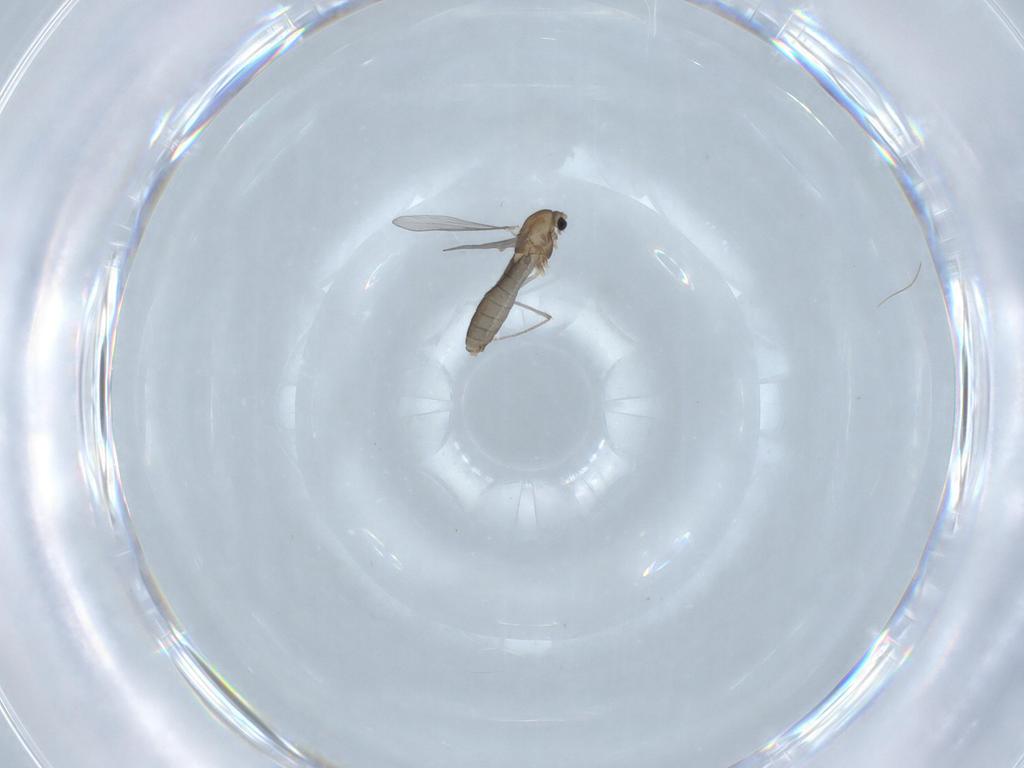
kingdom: Animalia
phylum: Arthropoda
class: Insecta
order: Diptera
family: Chironomidae
